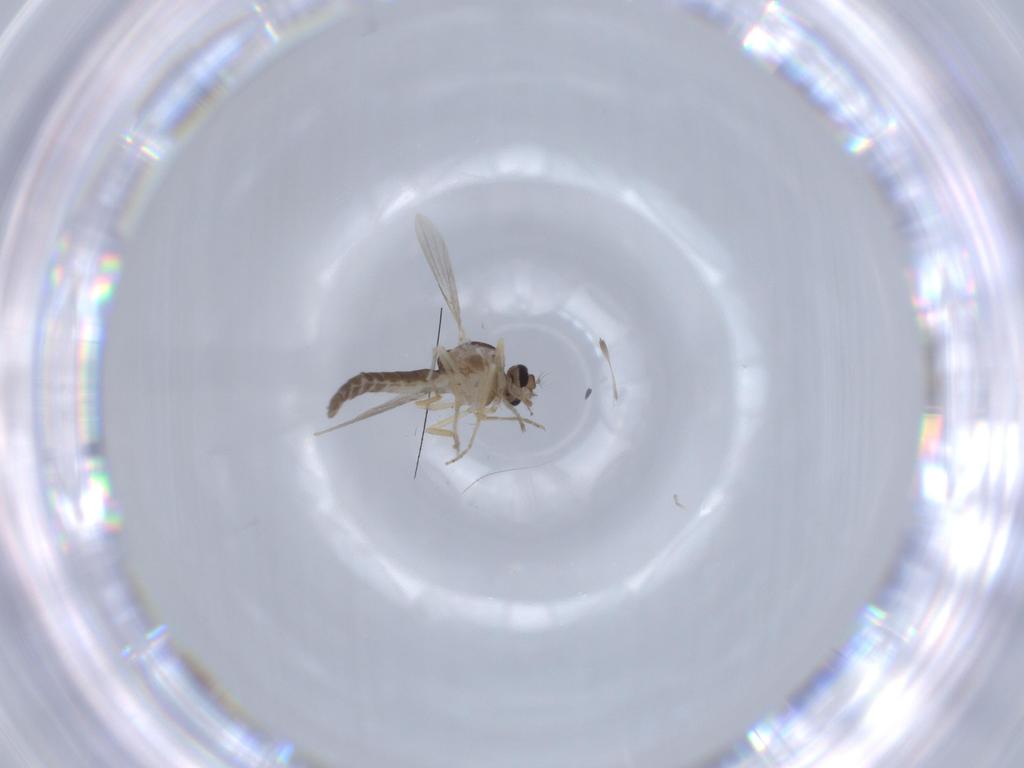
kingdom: Animalia
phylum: Arthropoda
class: Insecta
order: Diptera
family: Ceratopogonidae
